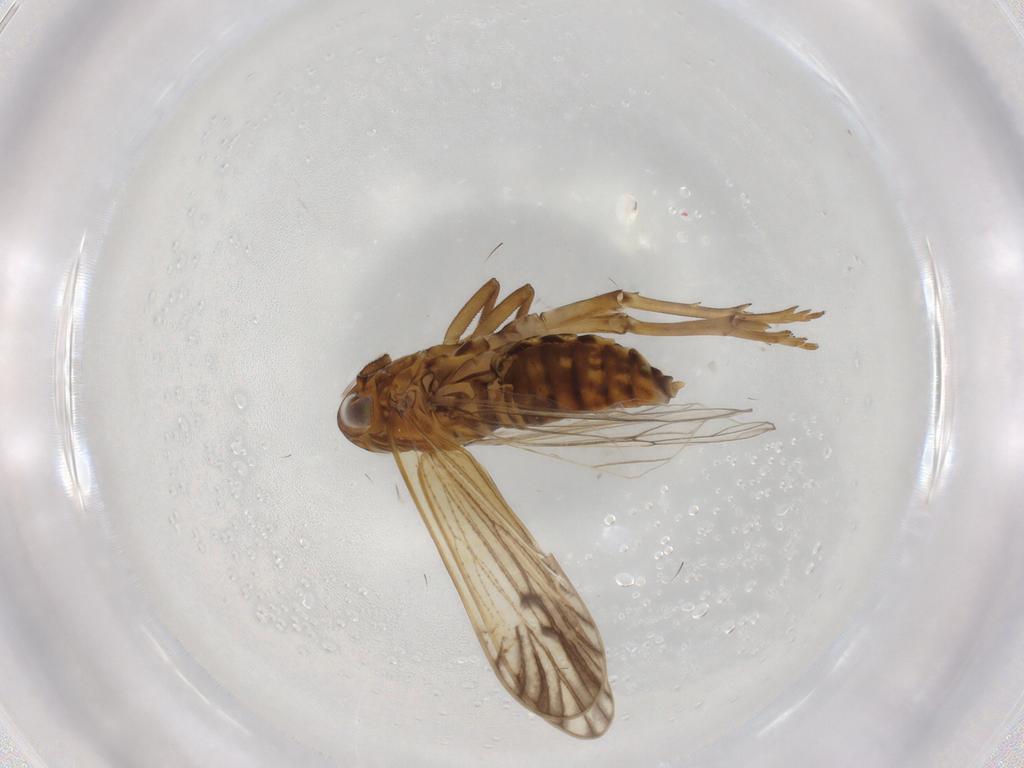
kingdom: Animalia
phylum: Arthropoda
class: Insecta
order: Hemiptera
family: Delphacidae
